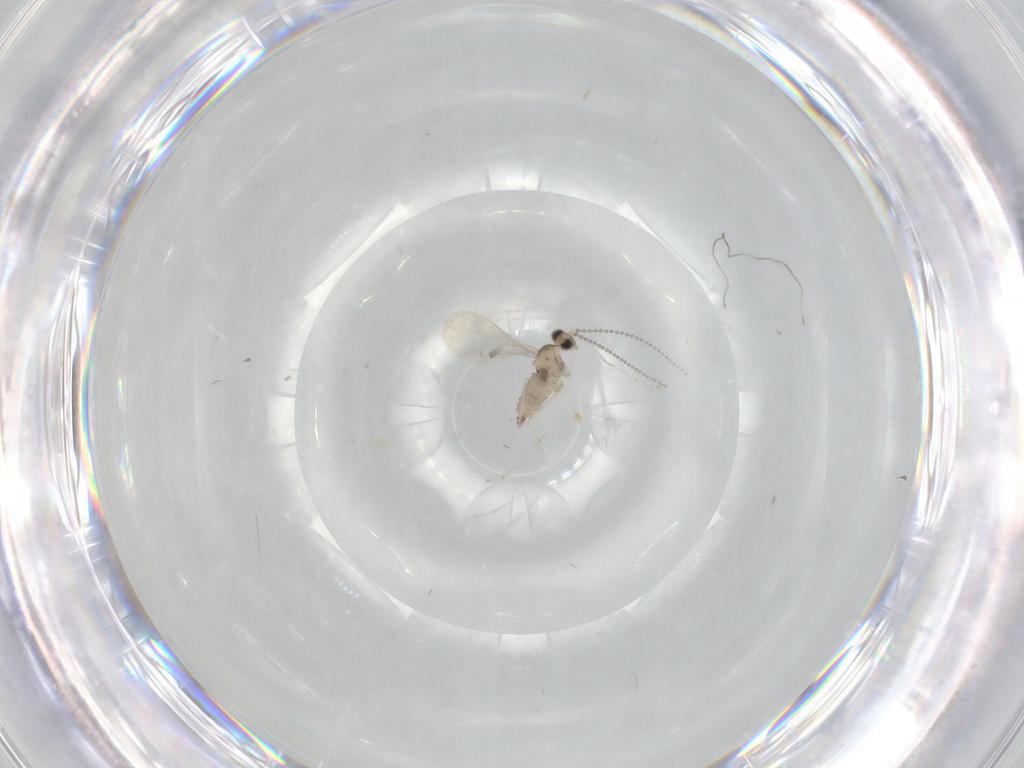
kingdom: Animalia
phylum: Arthropoda
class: Insecta
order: Diptera
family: Cecidomyiidae
